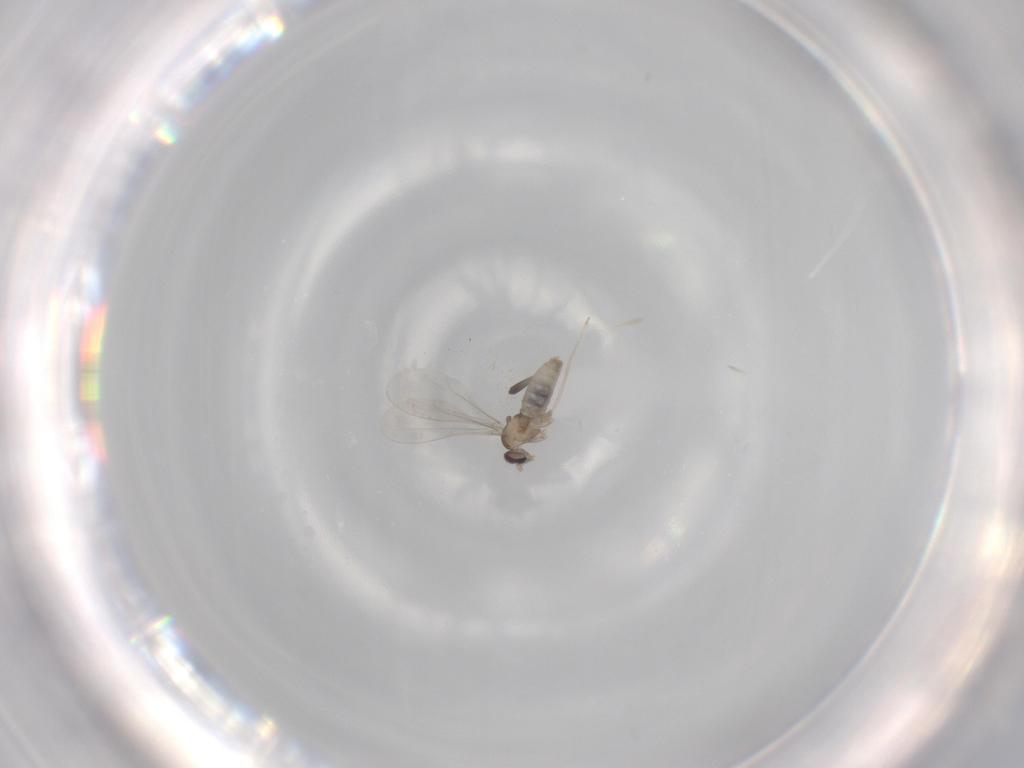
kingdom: Animalia
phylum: Arthropoda
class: Insecta
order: Diptera
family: Cecidomyiidae
